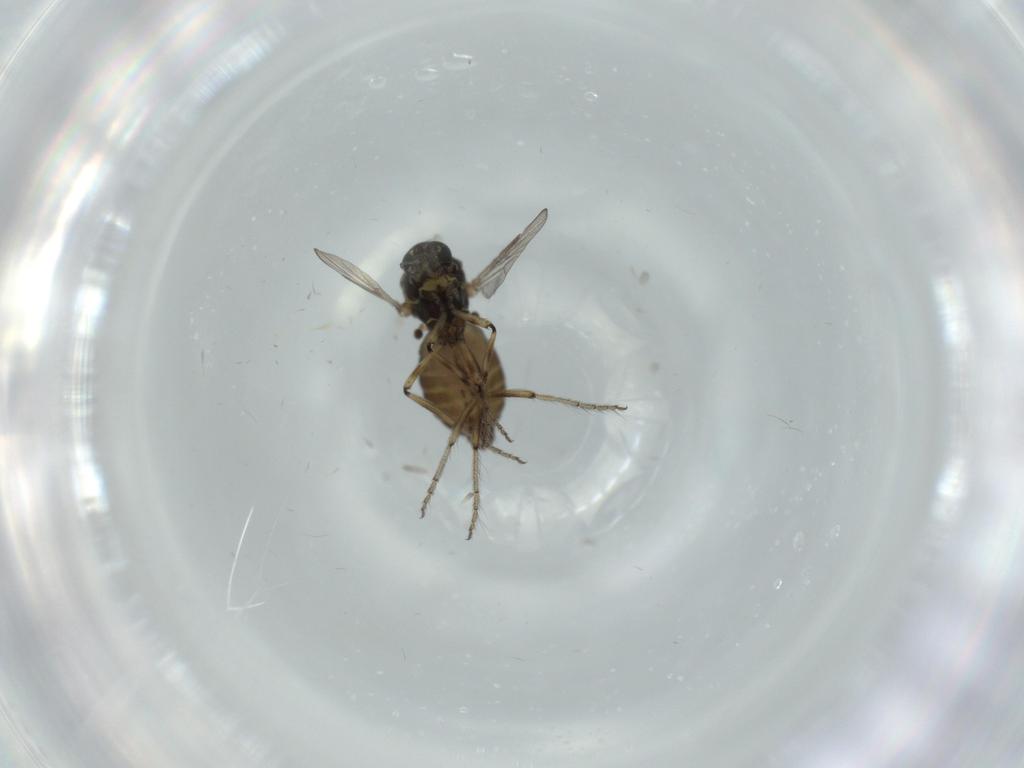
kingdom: Animalia
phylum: Arthropoda
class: Insecta
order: Diptera
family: Ceratopogonidae
